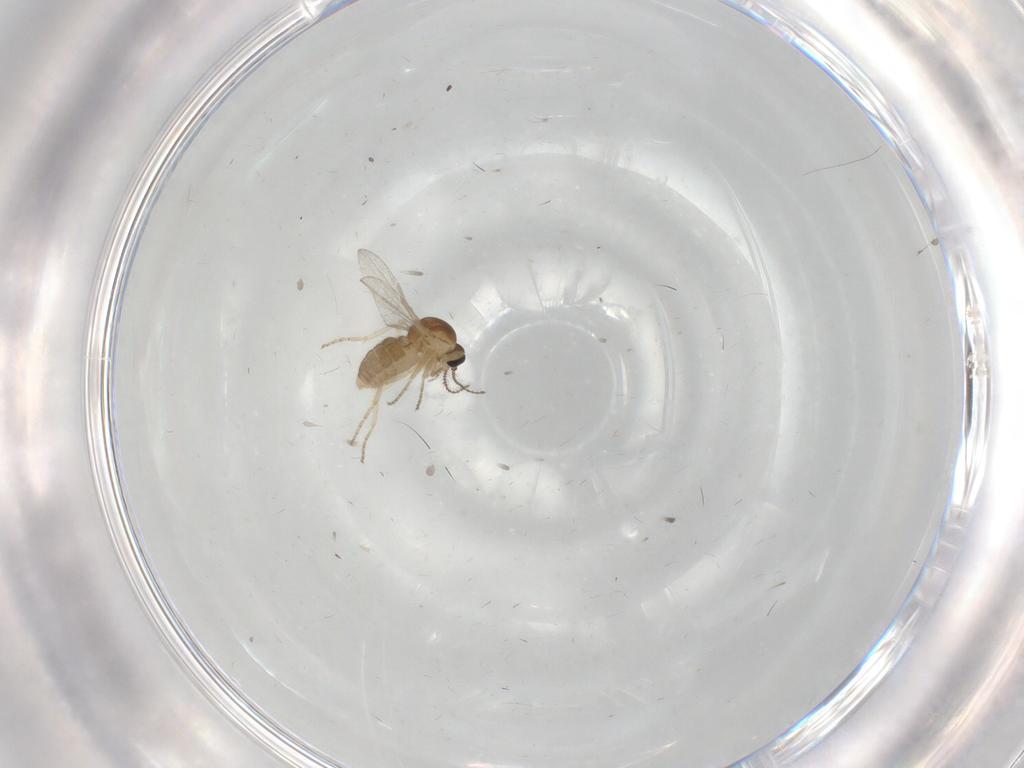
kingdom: Animalia
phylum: Arthropoda
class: Insecta
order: Diptera
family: Ceratopogonidae
